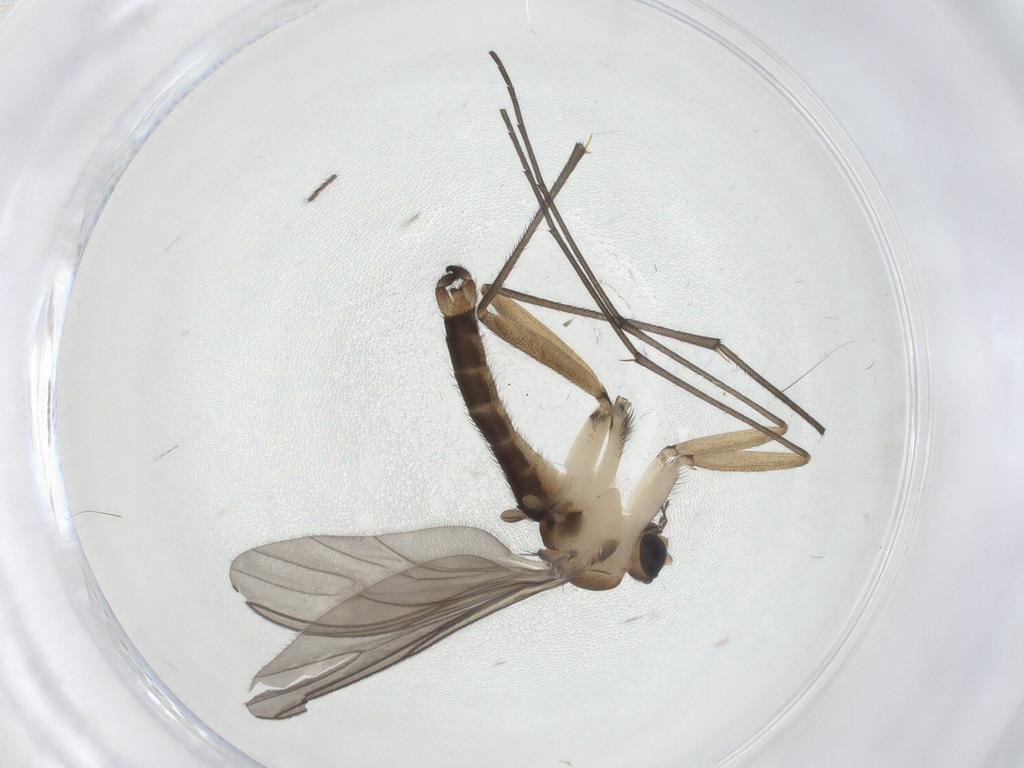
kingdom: Animalia
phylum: Arthropoda
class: Insecta
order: Diptera
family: Sciaridae
